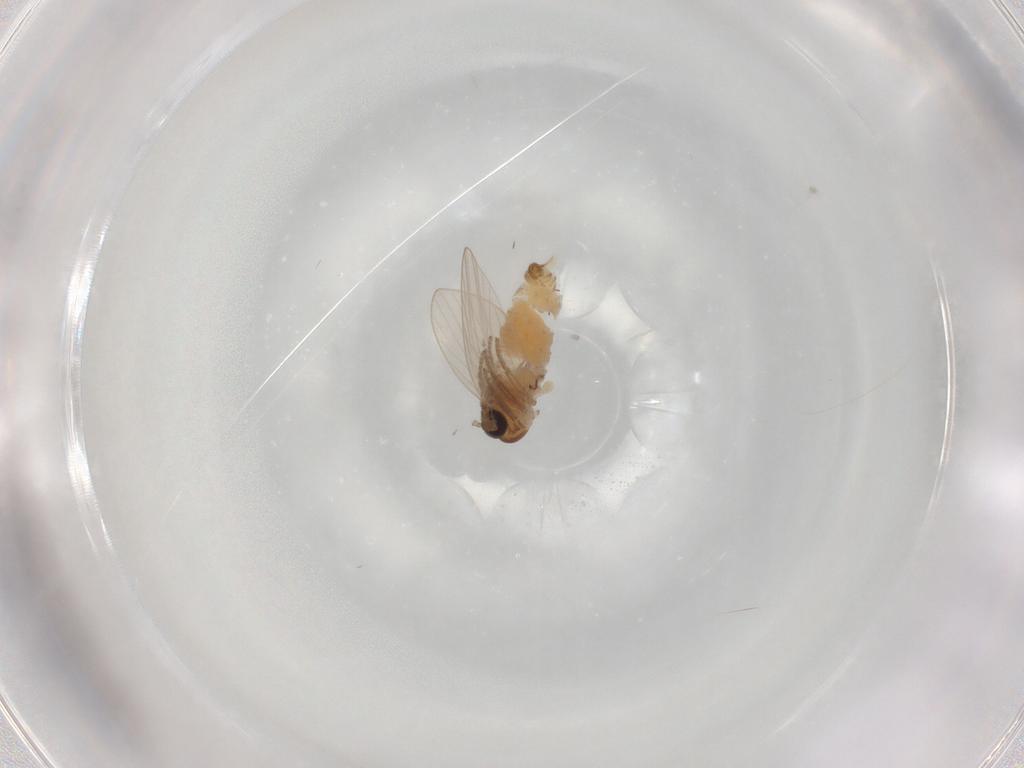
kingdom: Animalia
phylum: Arthropoda
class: Insecta
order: Diptera
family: Psychodidae
